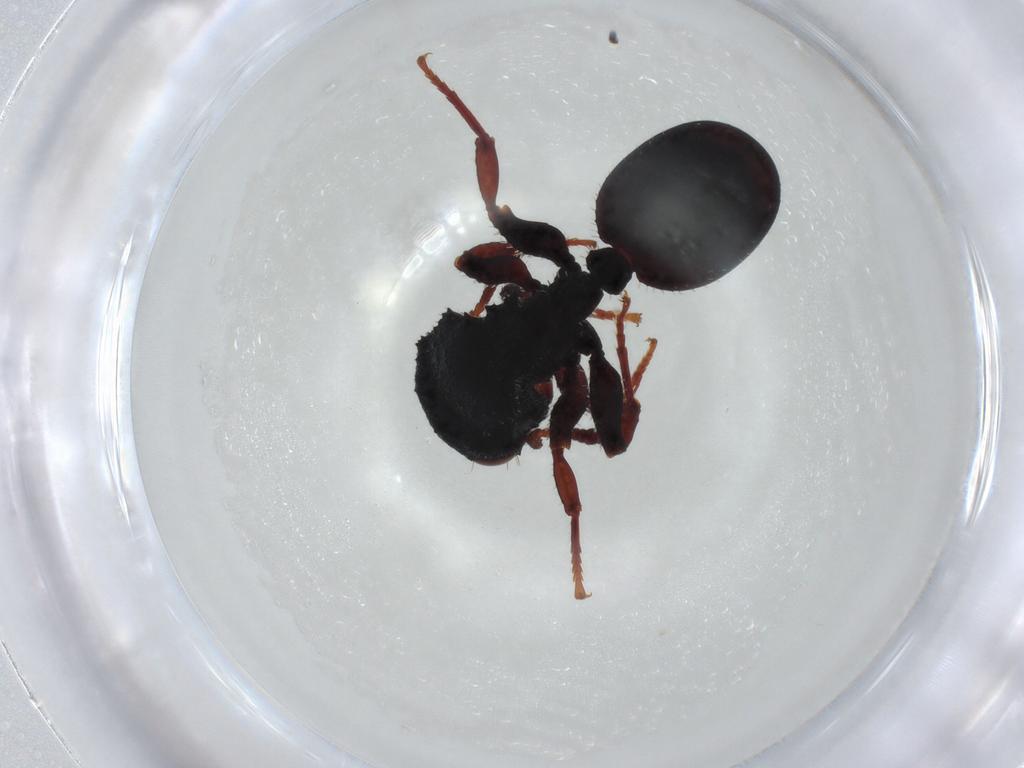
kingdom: Animalia
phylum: Arthropoda
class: Insecta
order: Hymenoptera
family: Formicidae
